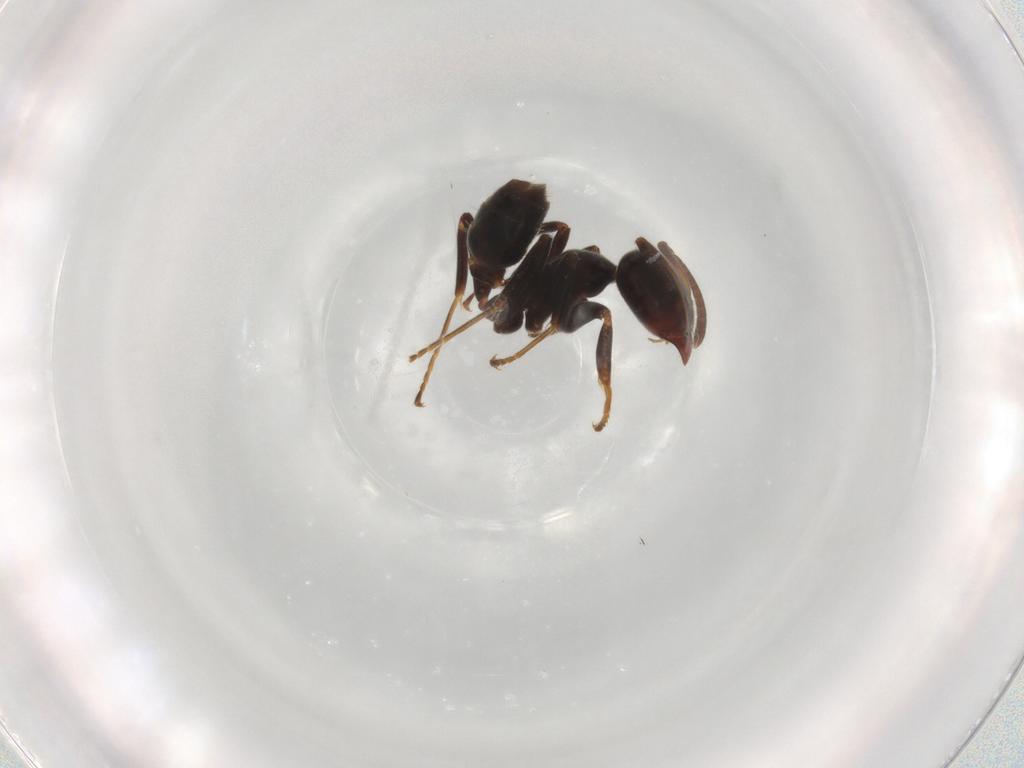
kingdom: Animalia
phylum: Arthropoda
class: Insecta
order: Hymenoptera
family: Formicidae
